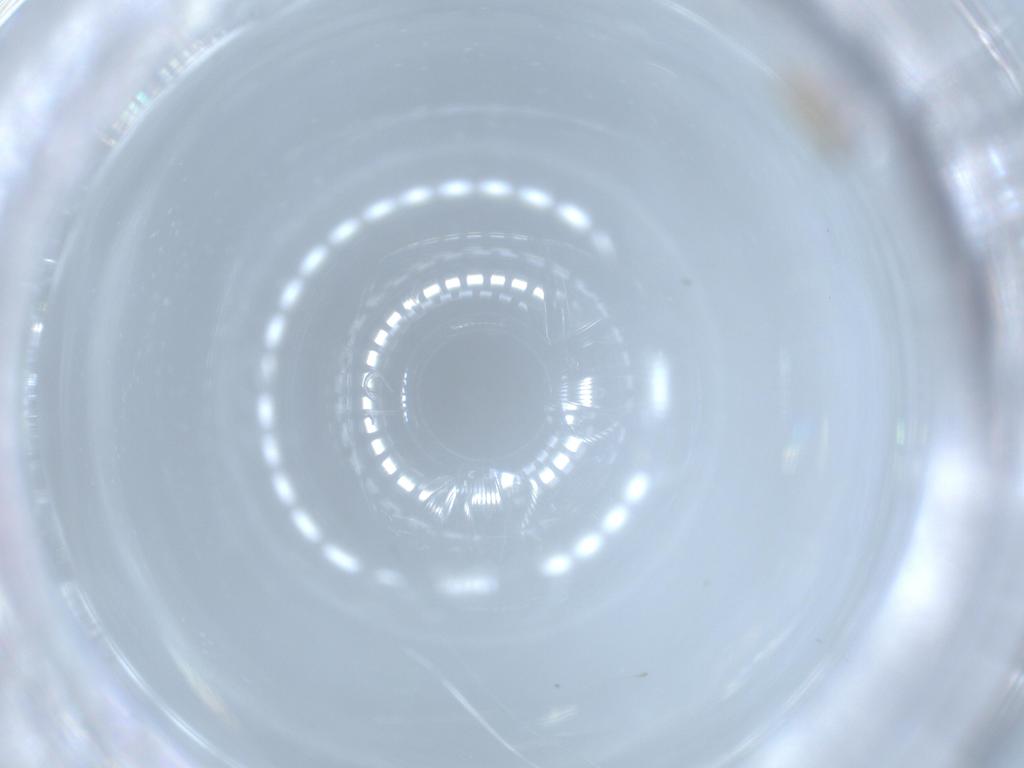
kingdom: Animalia
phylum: Arthropoda
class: Insecta
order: Diptera
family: Cecidomyiidae
